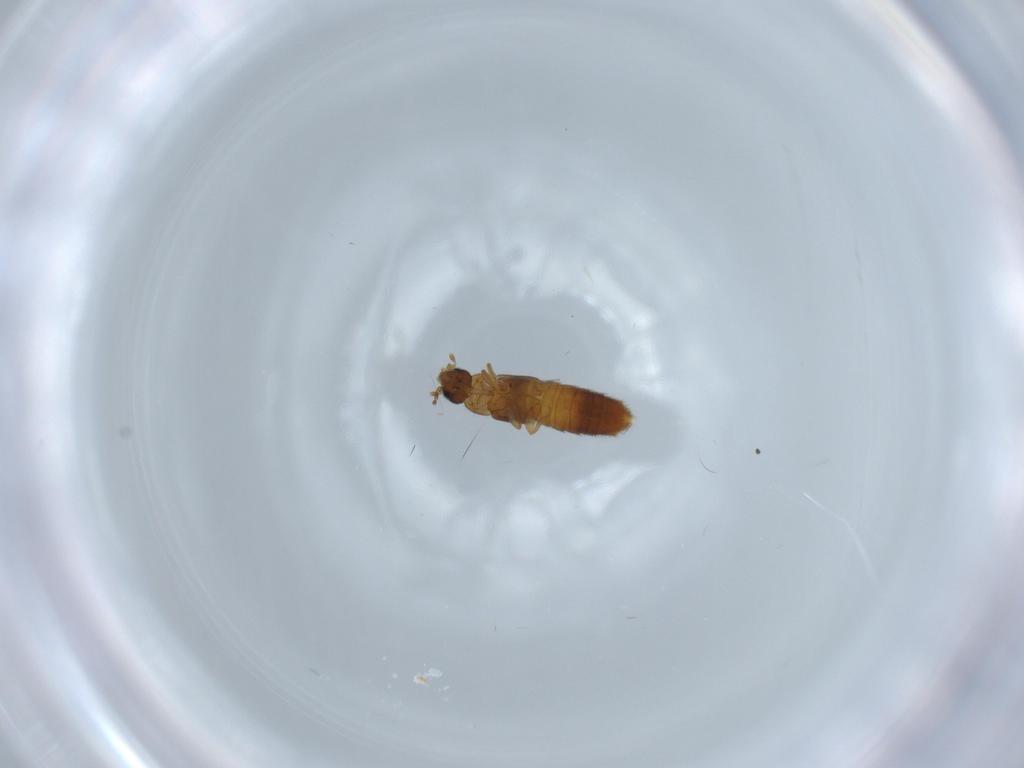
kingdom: Animalia
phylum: Arthropoda
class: Insecta
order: Coleoptera
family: Staphylinidae
